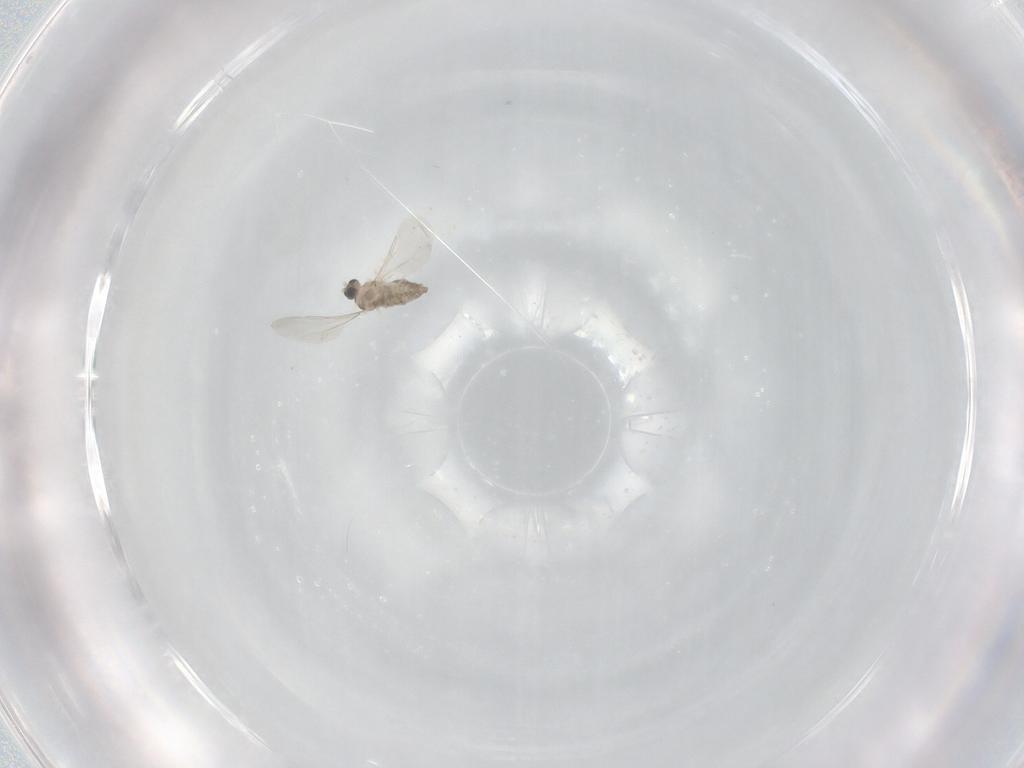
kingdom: Animalia
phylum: Arthropoda
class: Insecta
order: Diptera
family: Cecidomyiidae
